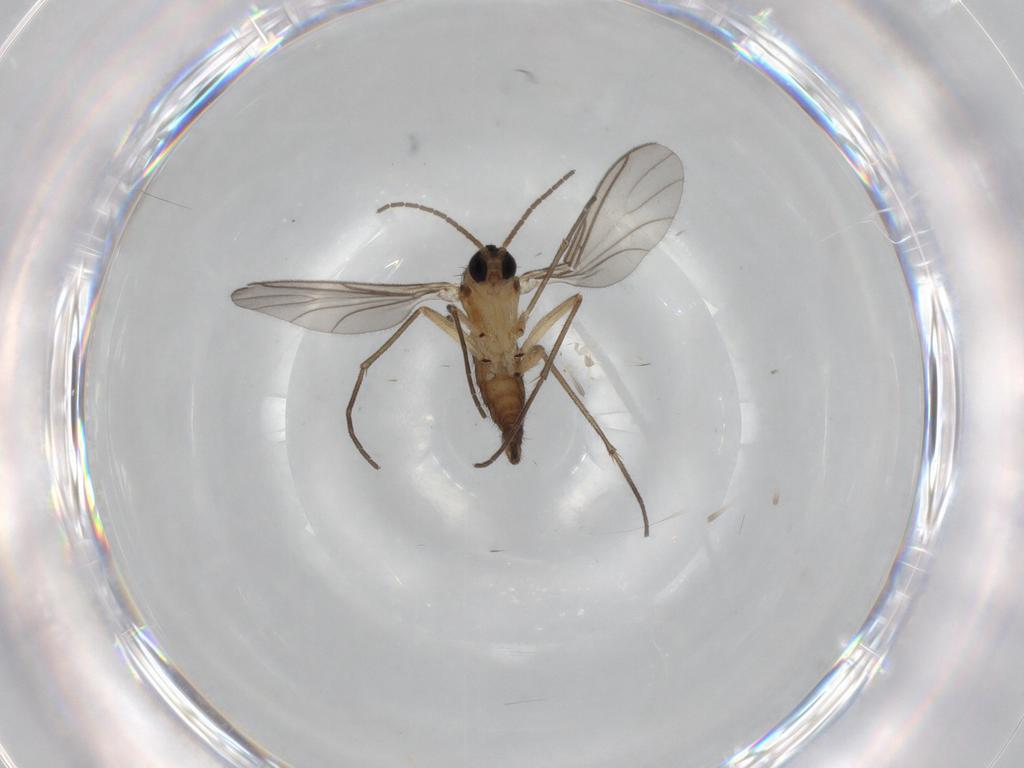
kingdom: Animalia
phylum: Arthropoda
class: Insecta
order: Diptera
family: Sciaridae
